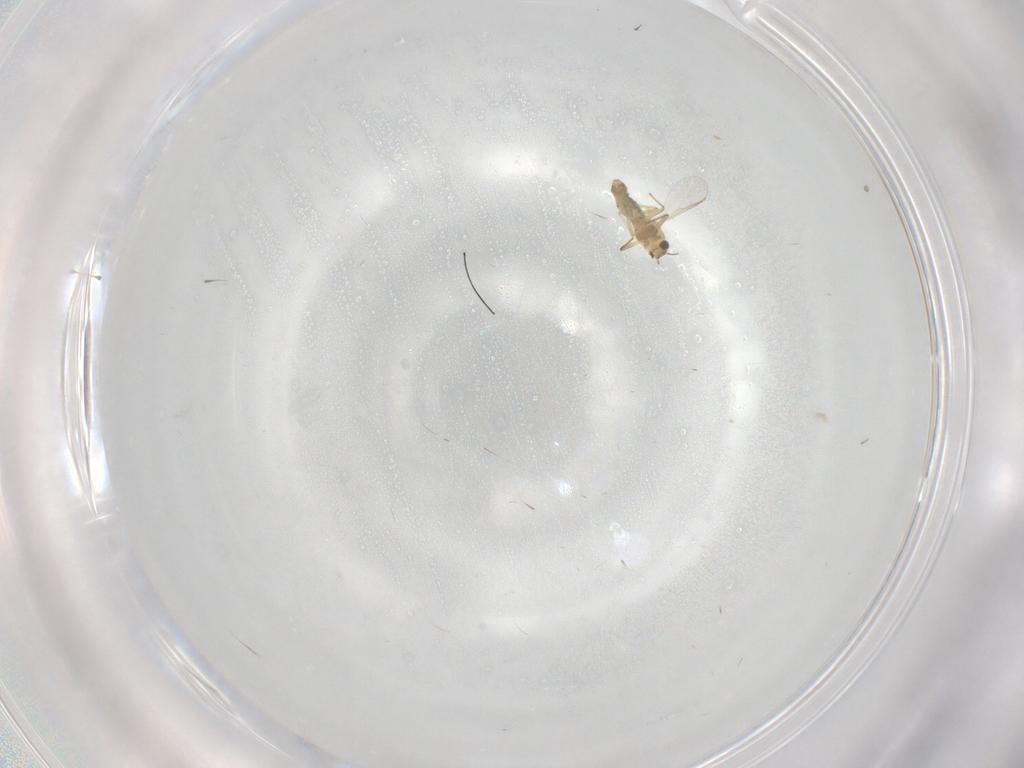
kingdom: Animalia
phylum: Arthropoda
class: Insecta
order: Diptera
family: Chironomidae
